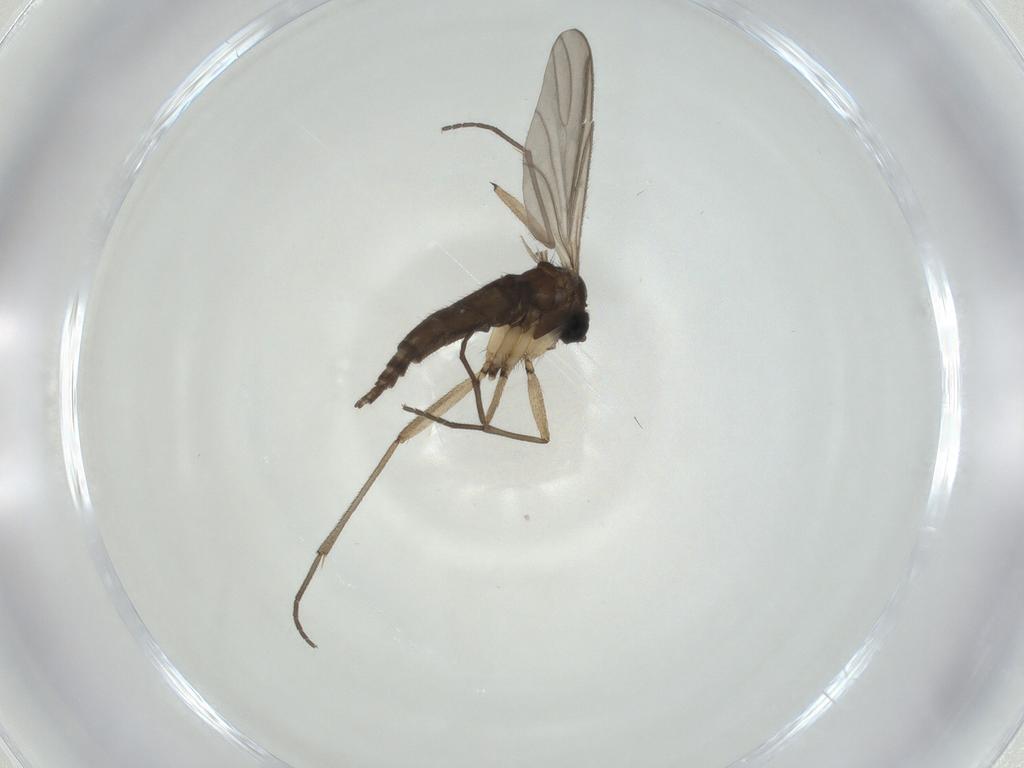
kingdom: Animalia
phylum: Arthropoda
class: Insecta
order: Diptera
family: Sciaridae
